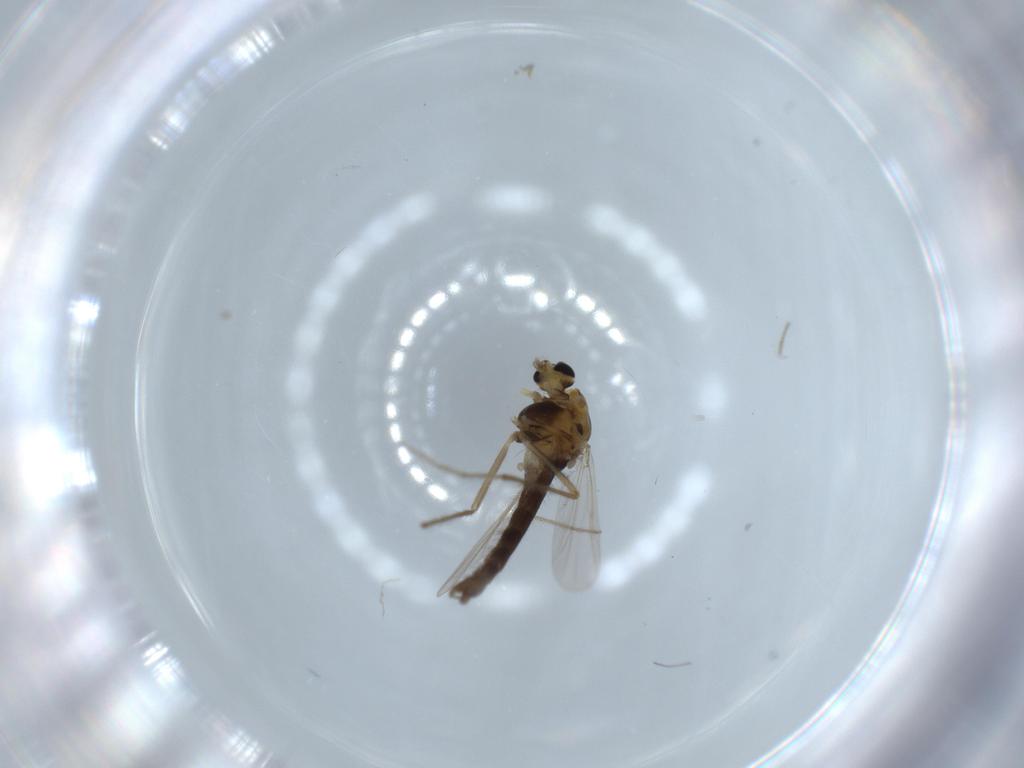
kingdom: Animalia
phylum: Arthropoda
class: Insecta
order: Diptera
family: Chironomidae
